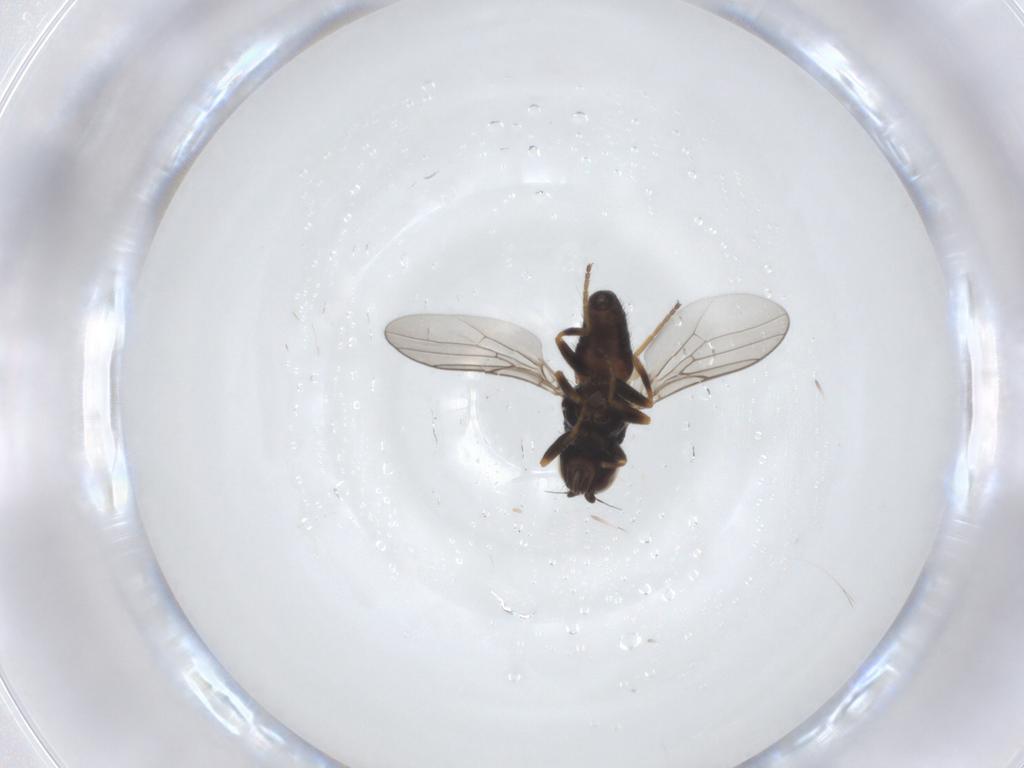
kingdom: Animalia
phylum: Arthropoda
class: Insecta
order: Diptera
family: Chloropidae
